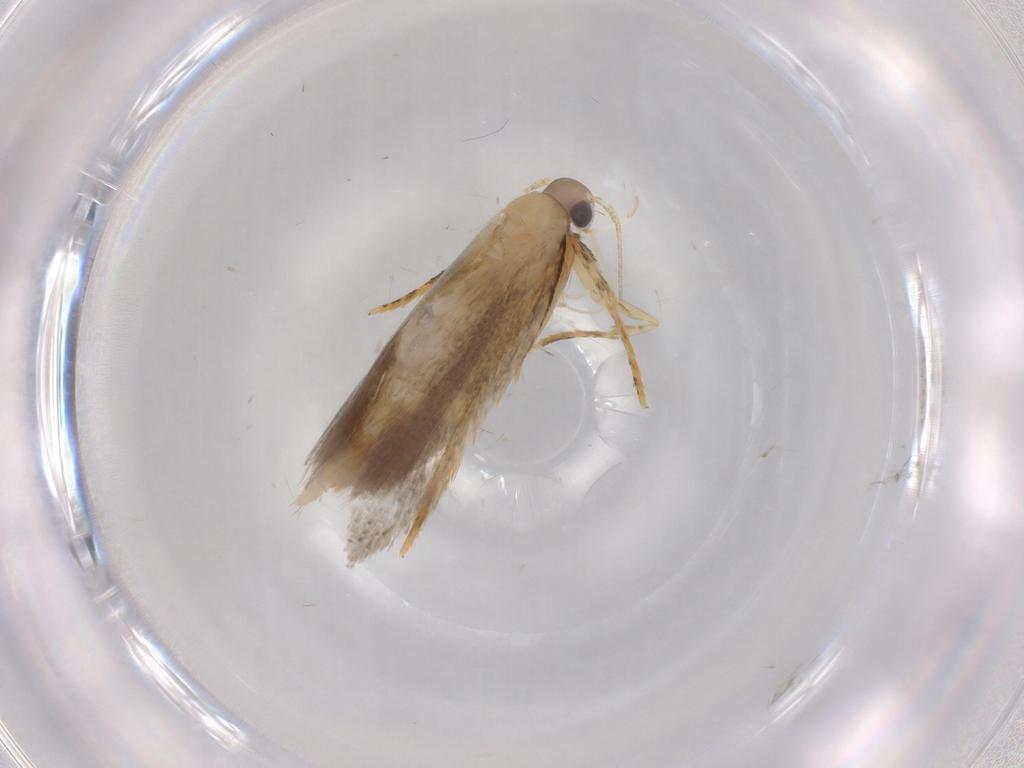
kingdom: Animalia
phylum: Arthropoda
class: Insecta
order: Lepidoptera
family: Autostichidae
